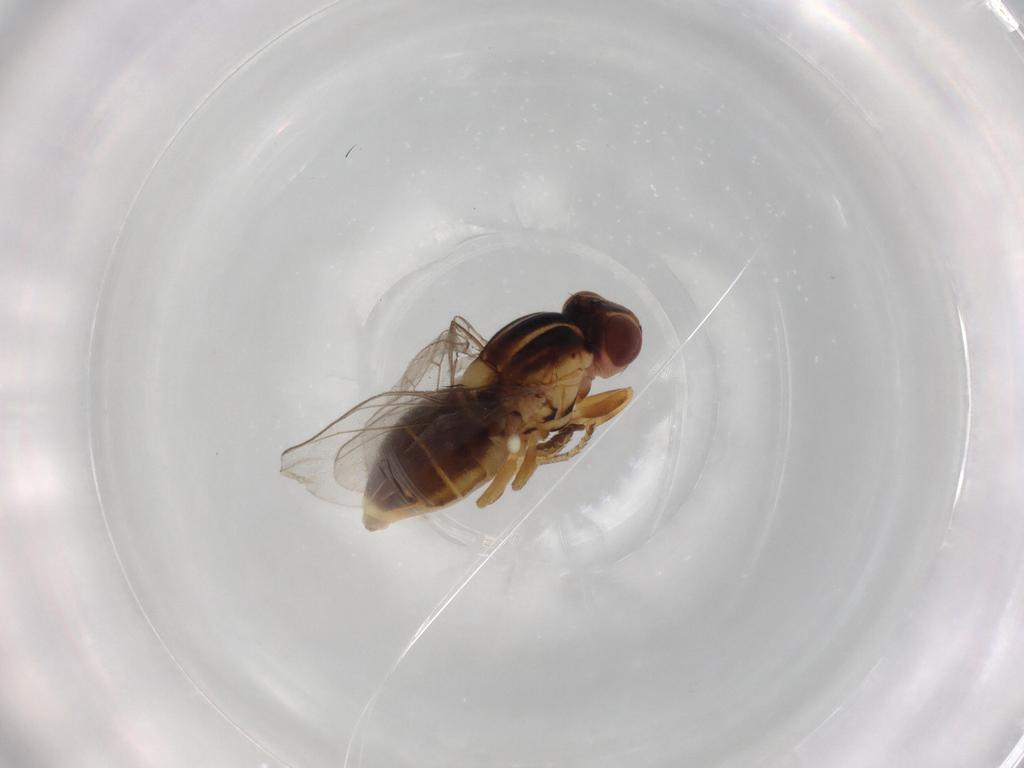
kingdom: Animalia
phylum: Arthropoda
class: Insecta
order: Diptera
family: Chloropidae
